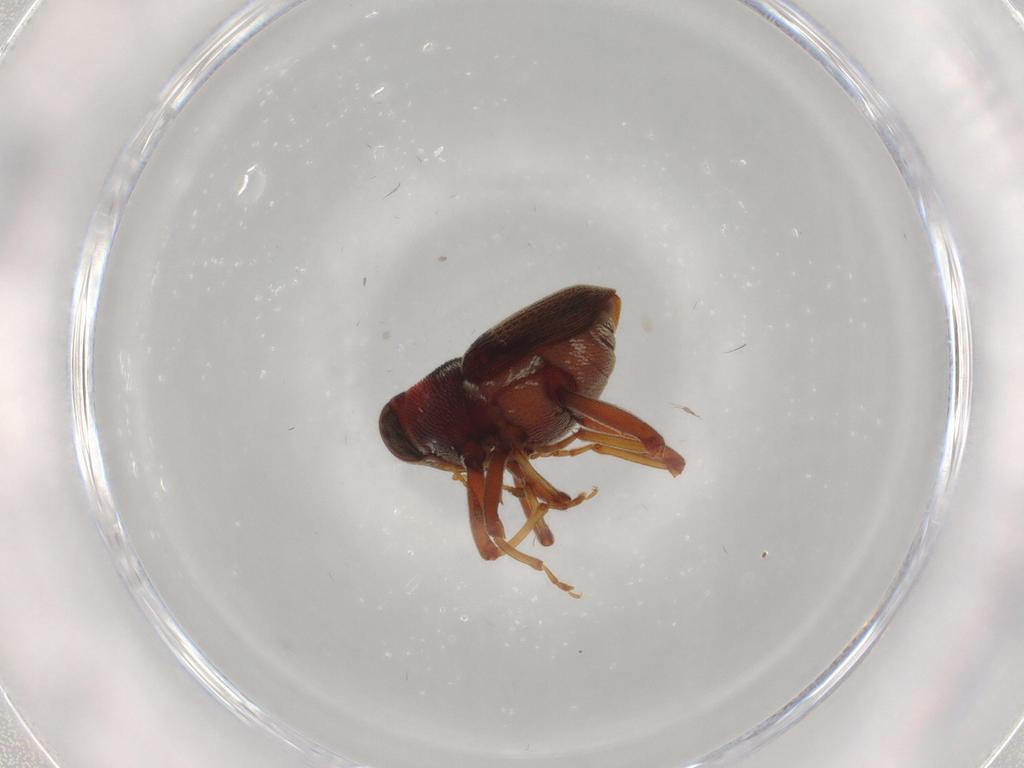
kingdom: Animalia
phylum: Arthropoda
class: Insecta
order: Coleoptera
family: Curculionidae
